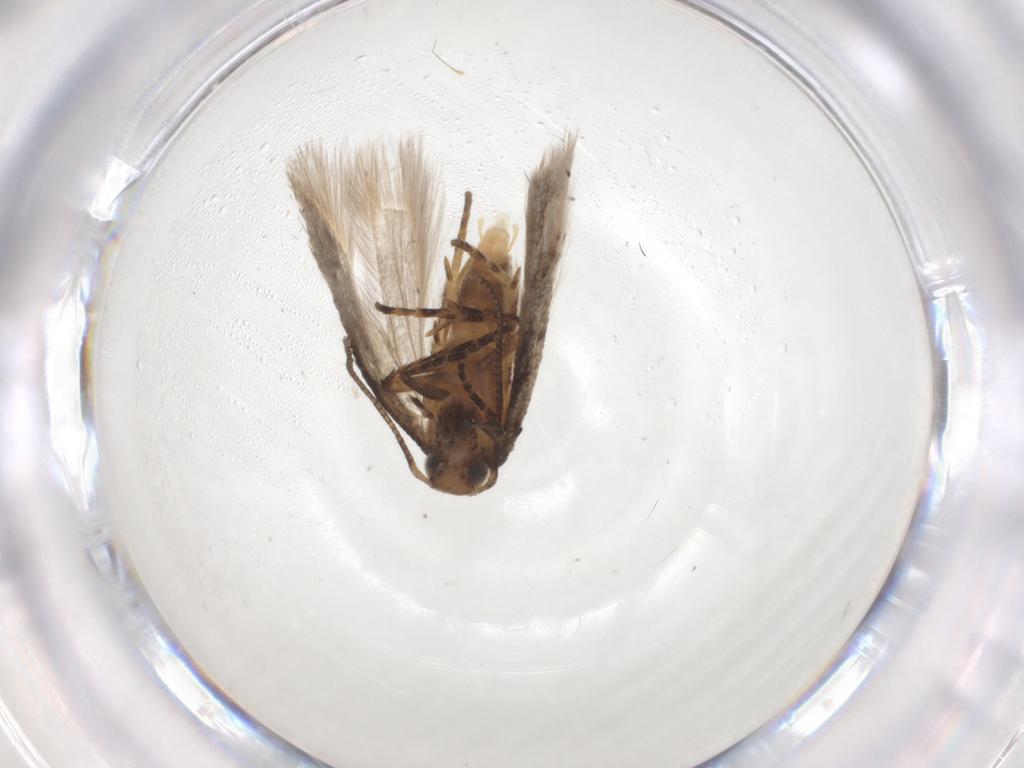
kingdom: Animalia
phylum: Arthropoda
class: Insecta
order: Lepidoptera
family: Gelechiidae
